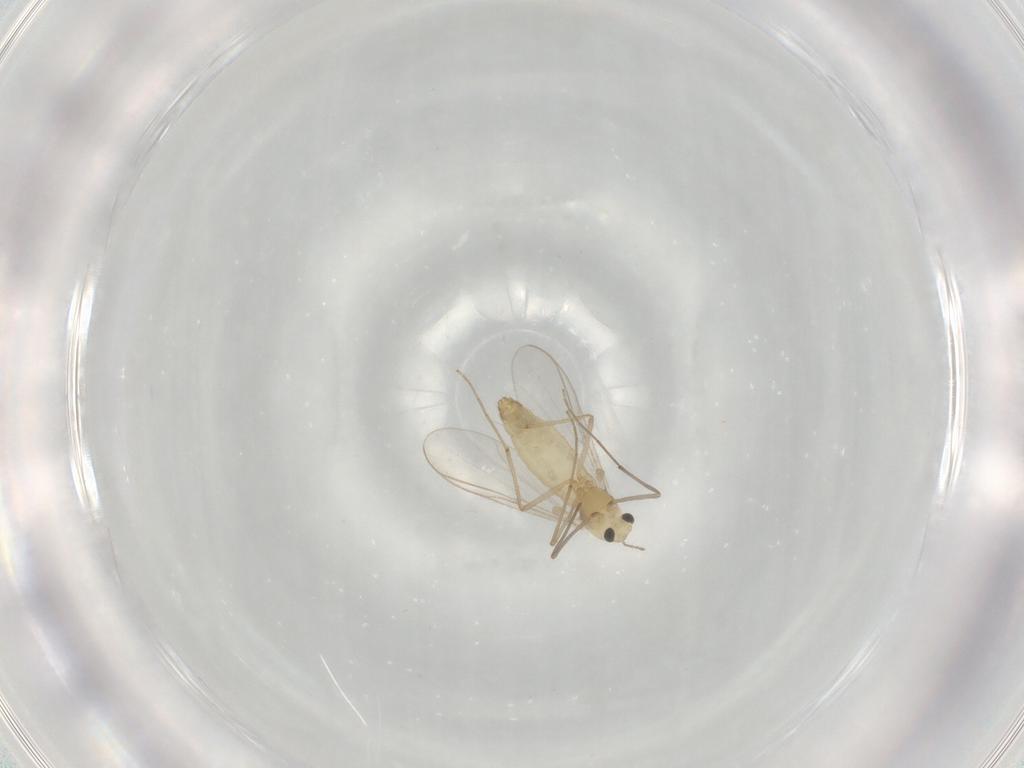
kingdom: Animalia
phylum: Arthropoda
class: Insecta
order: Diptera
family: Chironomidae
